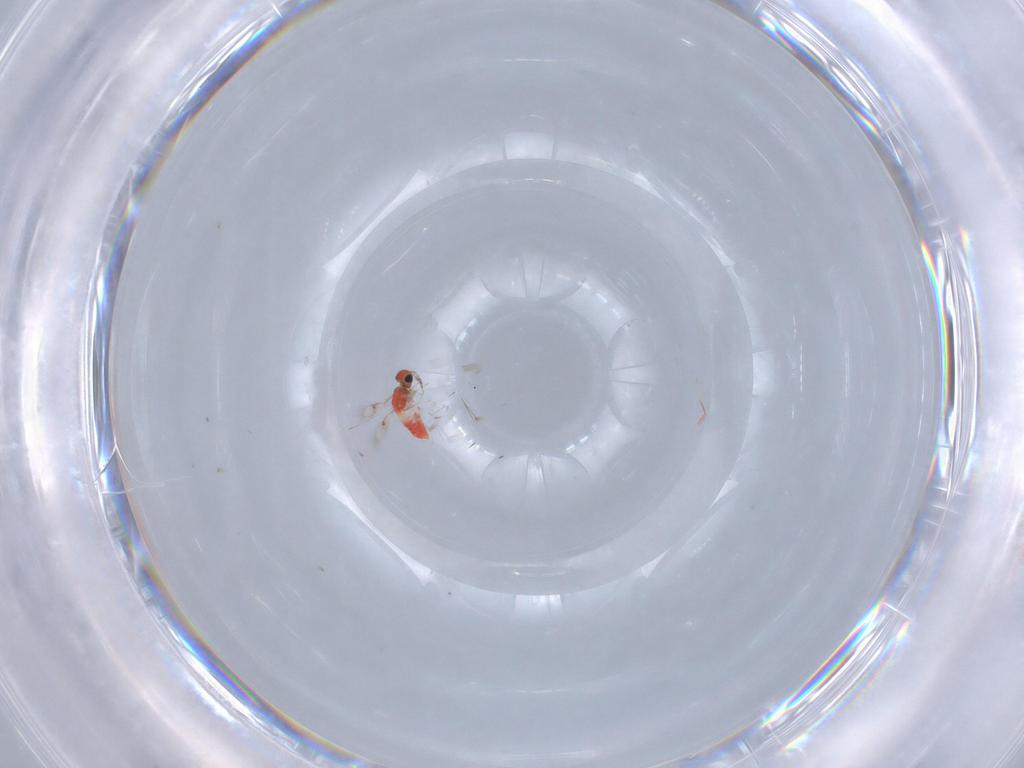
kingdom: Animalia
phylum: Arthropoda
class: Insecta
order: Hymenoptera
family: Trichogrammatidae
